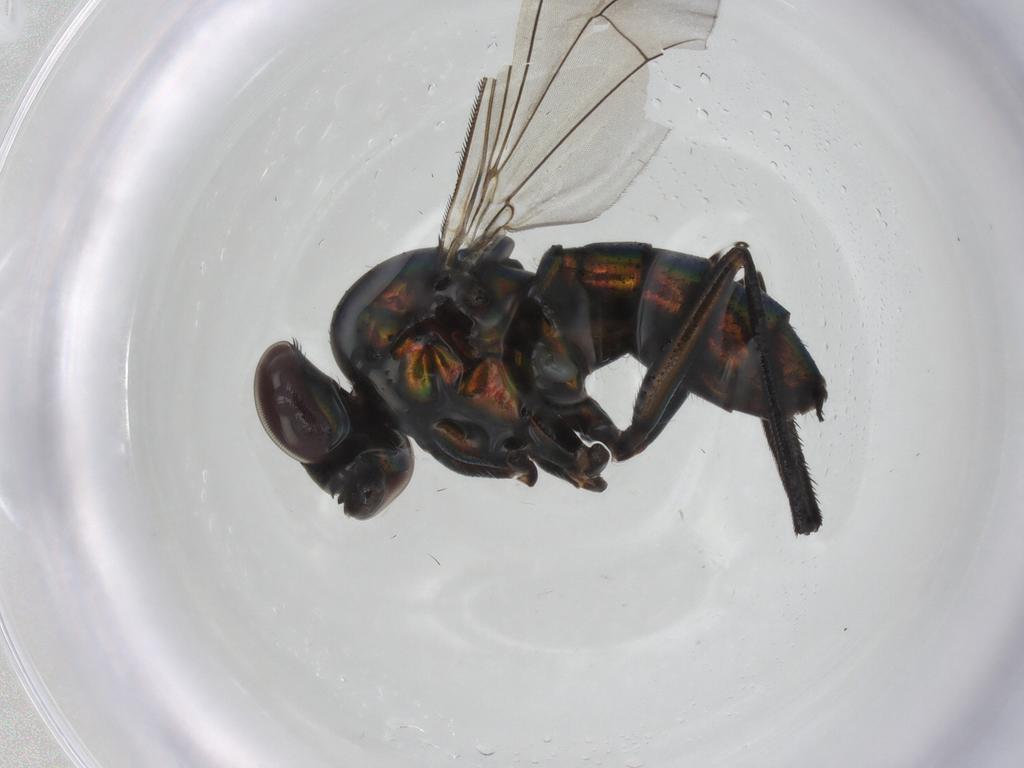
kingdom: Animalia
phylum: Arthropoda
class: Insecta
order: Diptera
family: Dolichopodidae
